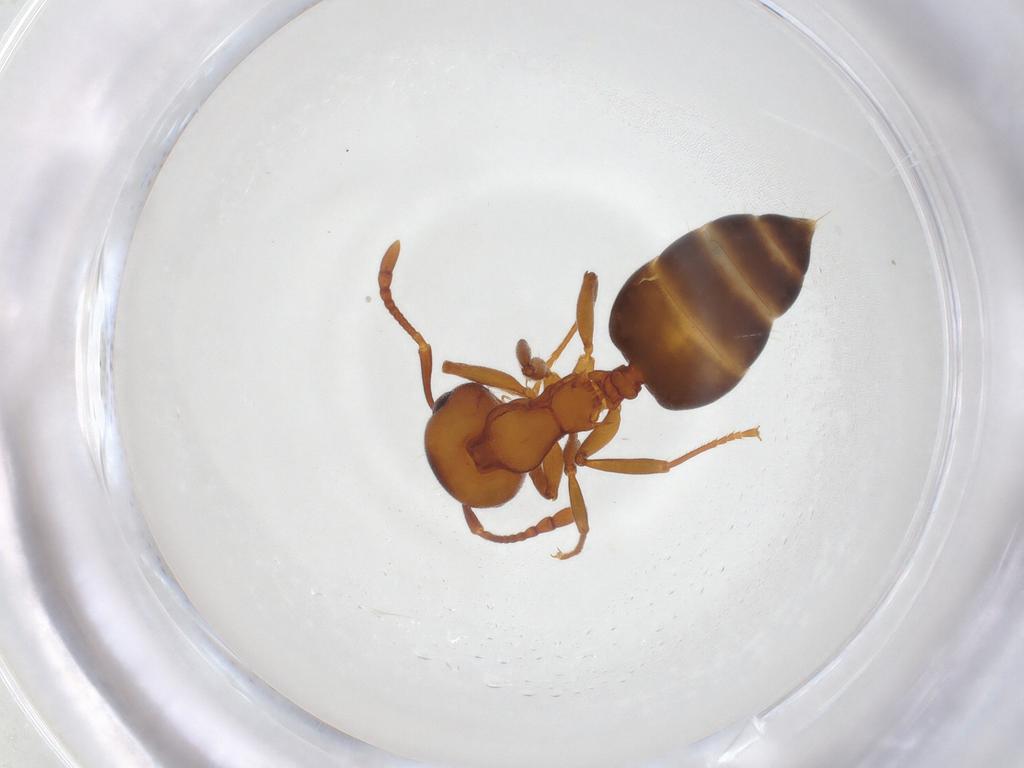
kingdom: Animalia
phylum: Arthropoda
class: Insecta
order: Hymenoptera
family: Formicidae
